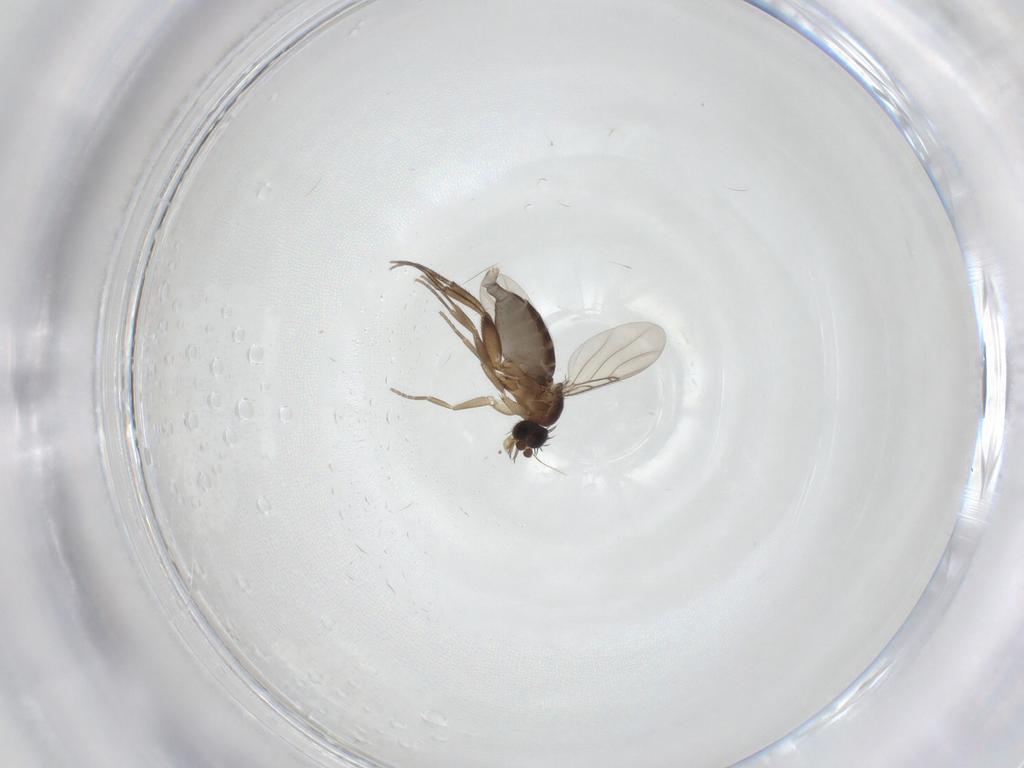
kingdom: Animalia
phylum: Arthropoda
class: Insecta
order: Diptera
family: Phoridae
